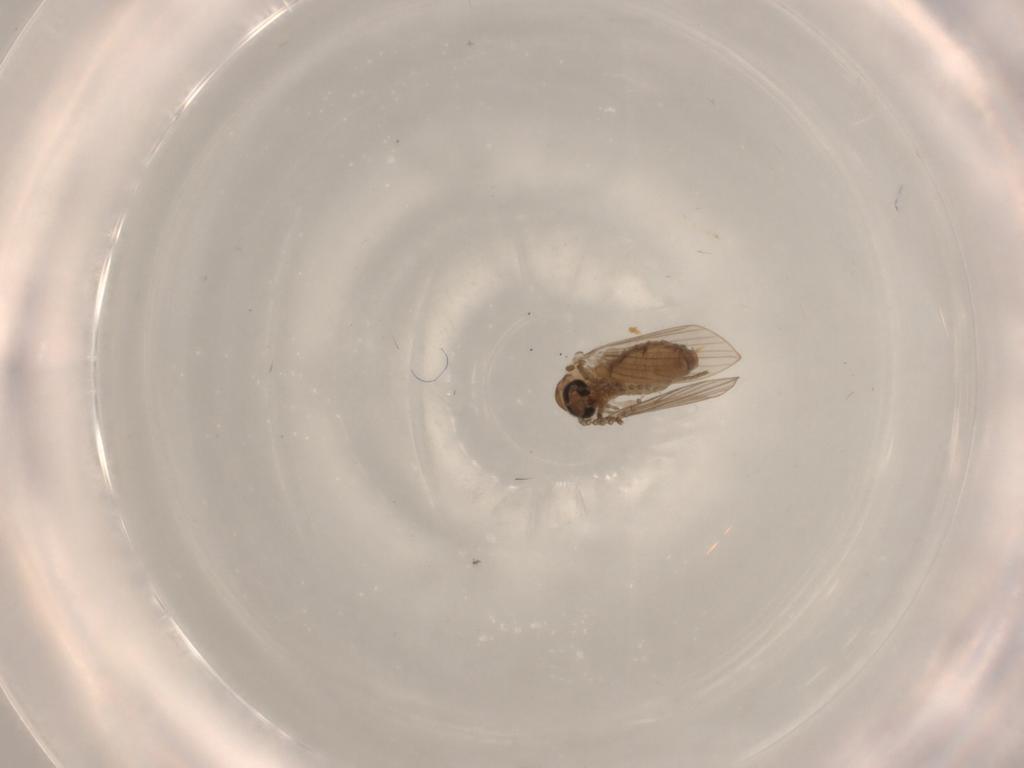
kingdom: Animalia
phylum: Arthropoda
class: Insecta
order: Diptera
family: Psychodidae
